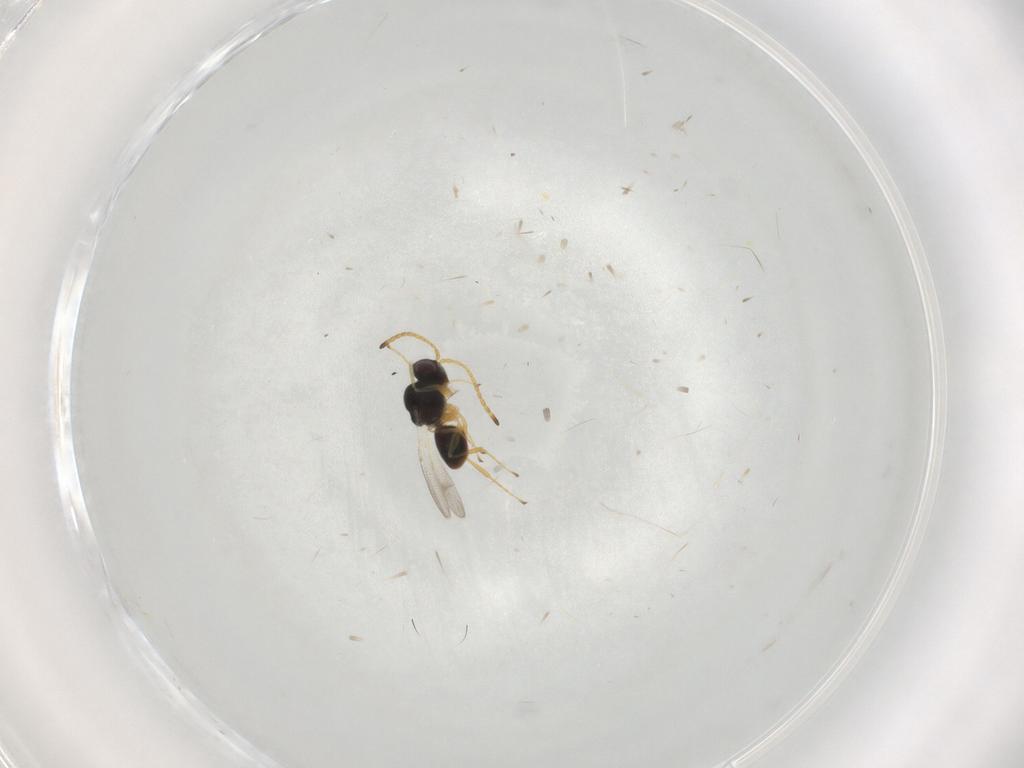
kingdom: Animalia
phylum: Arthropoda
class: Insecta
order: Hymenoptera
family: Figitidae
